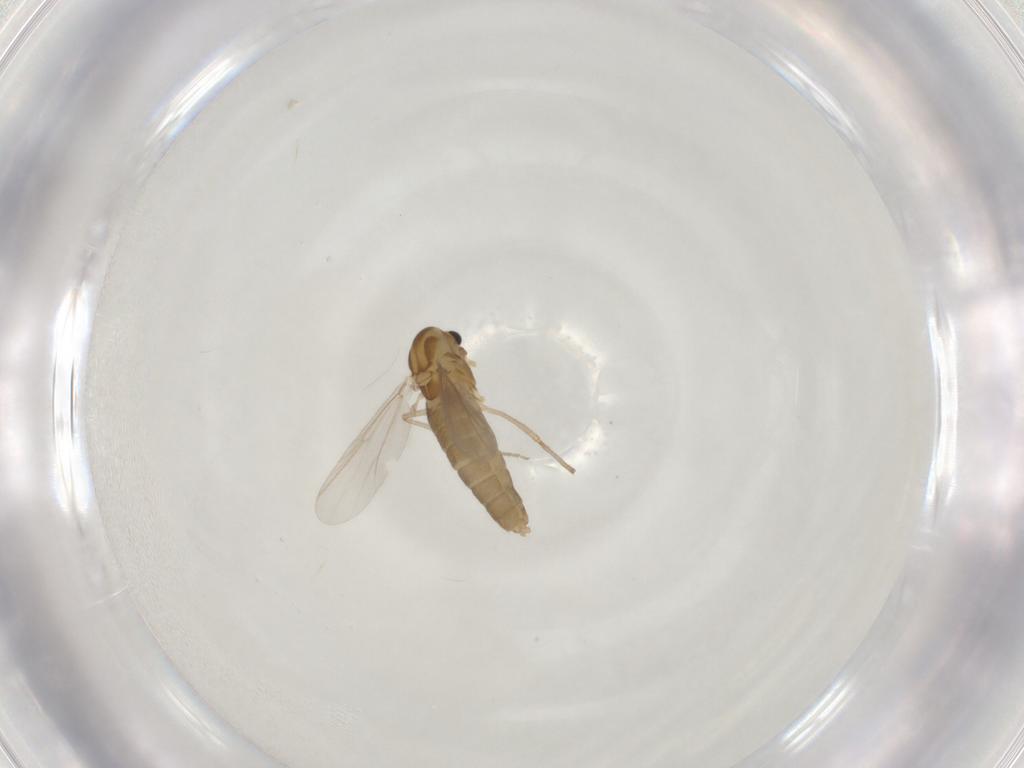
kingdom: Animalia
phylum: Arthropoda
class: Insecta
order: Diptera
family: Chironomidae
